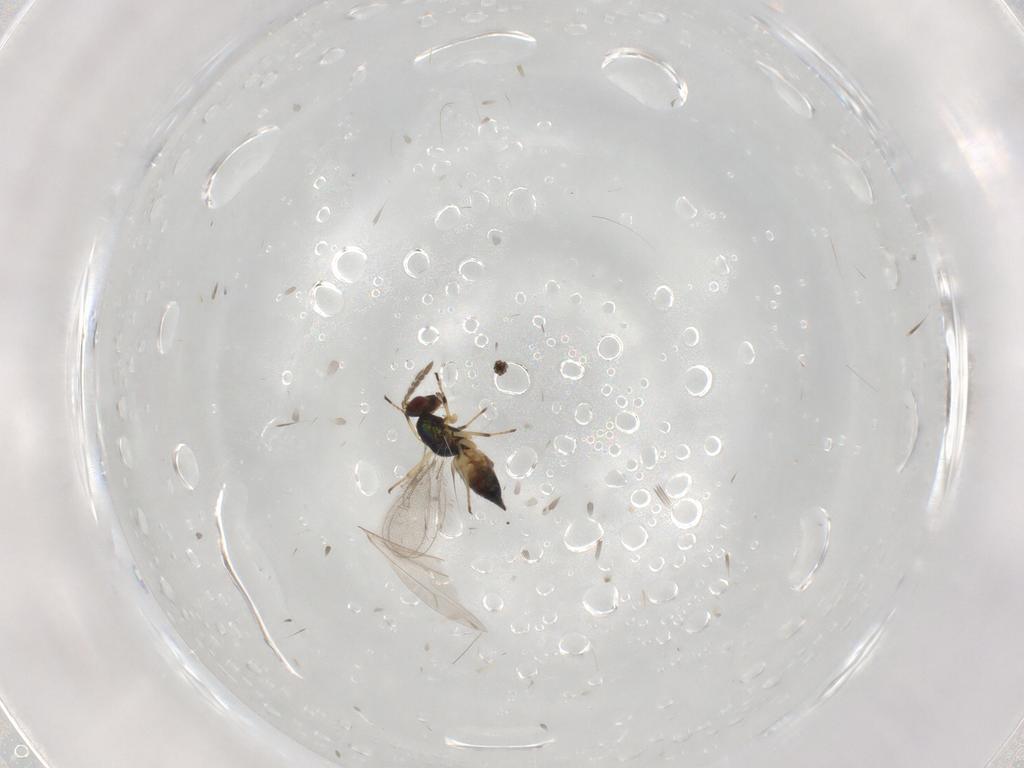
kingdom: Animalia
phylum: Arthropoda
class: Insecta
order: Hymenoptera
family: Eulophidae
